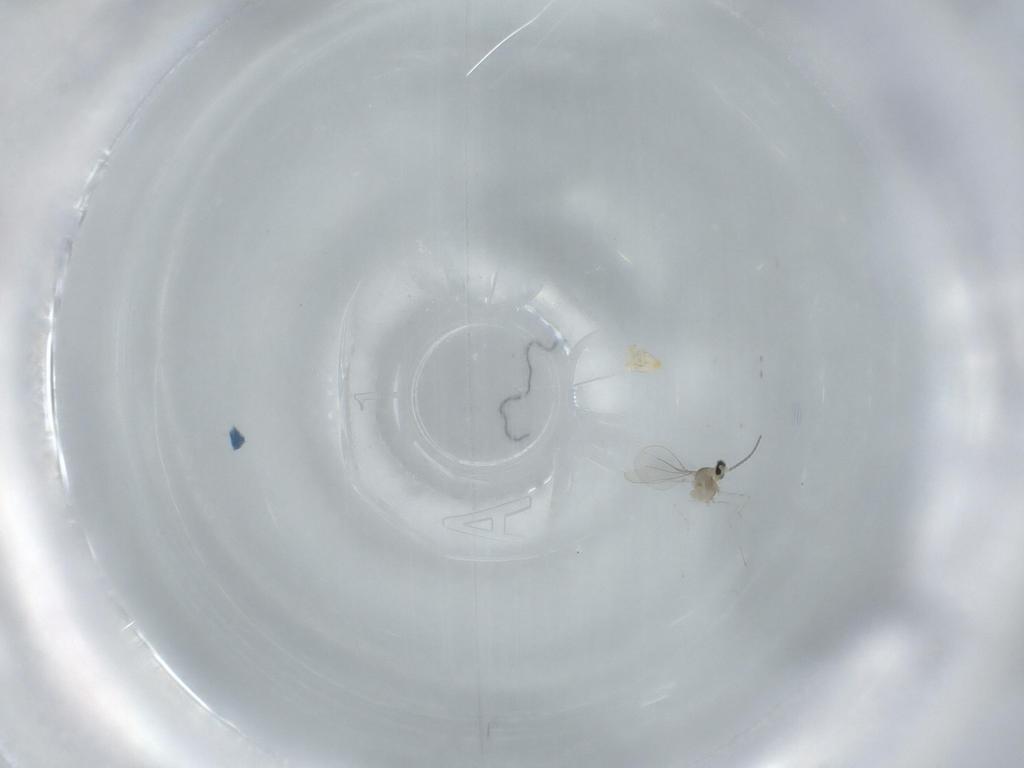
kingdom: Animalia
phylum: Arthropoda
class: Insecta
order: Diptera
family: Cecidomyiidae
